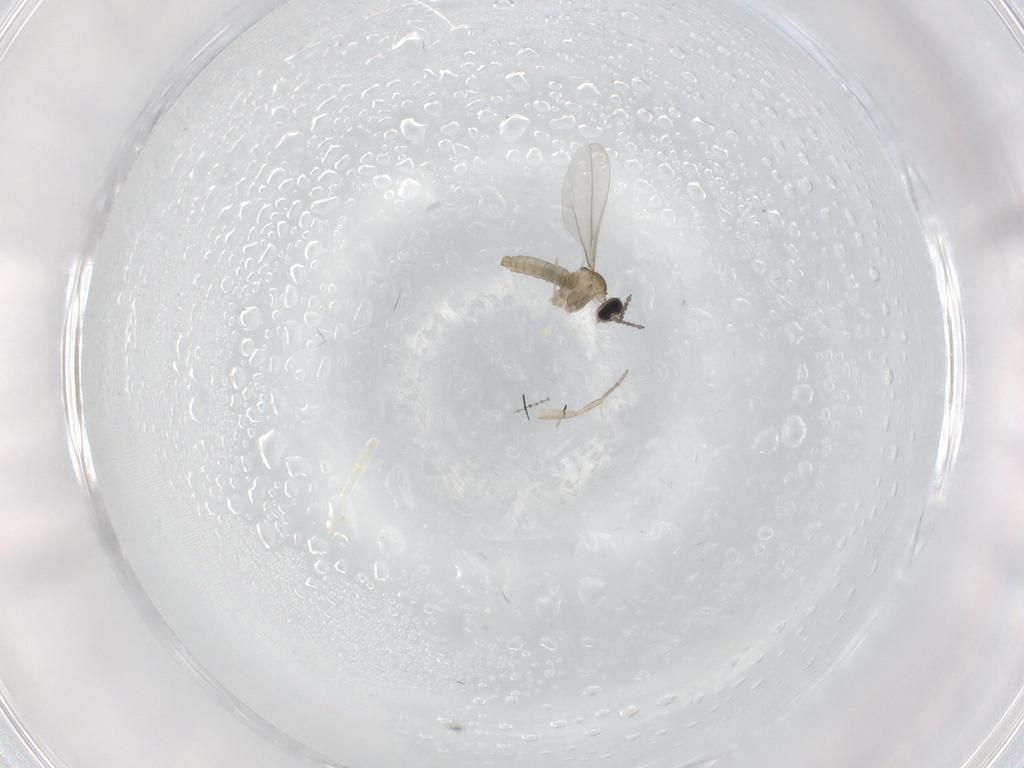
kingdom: Animalia
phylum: Arthropoda
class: Insecta
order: Diptera
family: Phoridae
